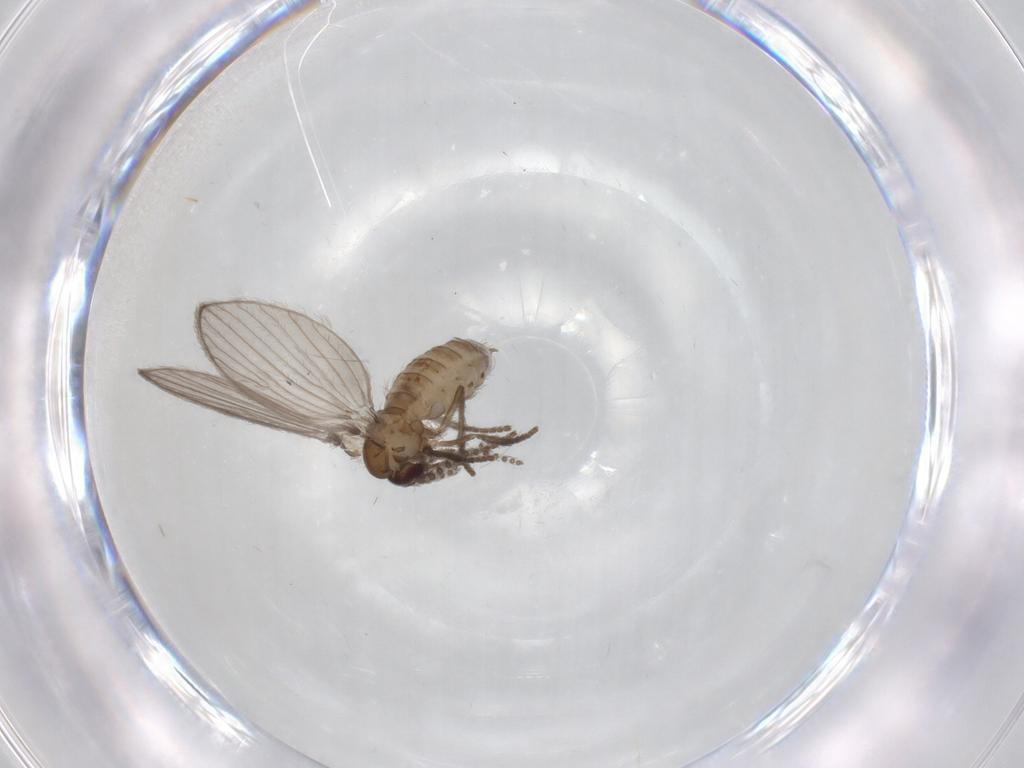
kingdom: Animalia
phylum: Arthropoda
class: Insecta
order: Diptera
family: Psychodidae
